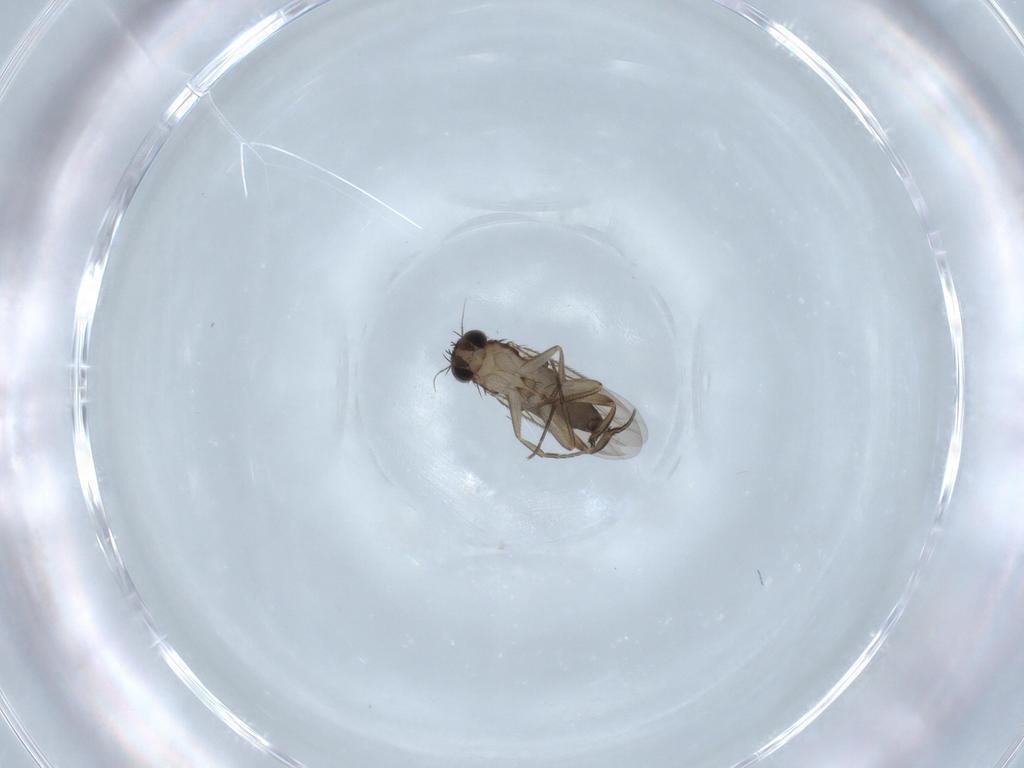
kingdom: Animalia
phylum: Arthropoda
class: Insecta
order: Diptera
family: Phoridae
